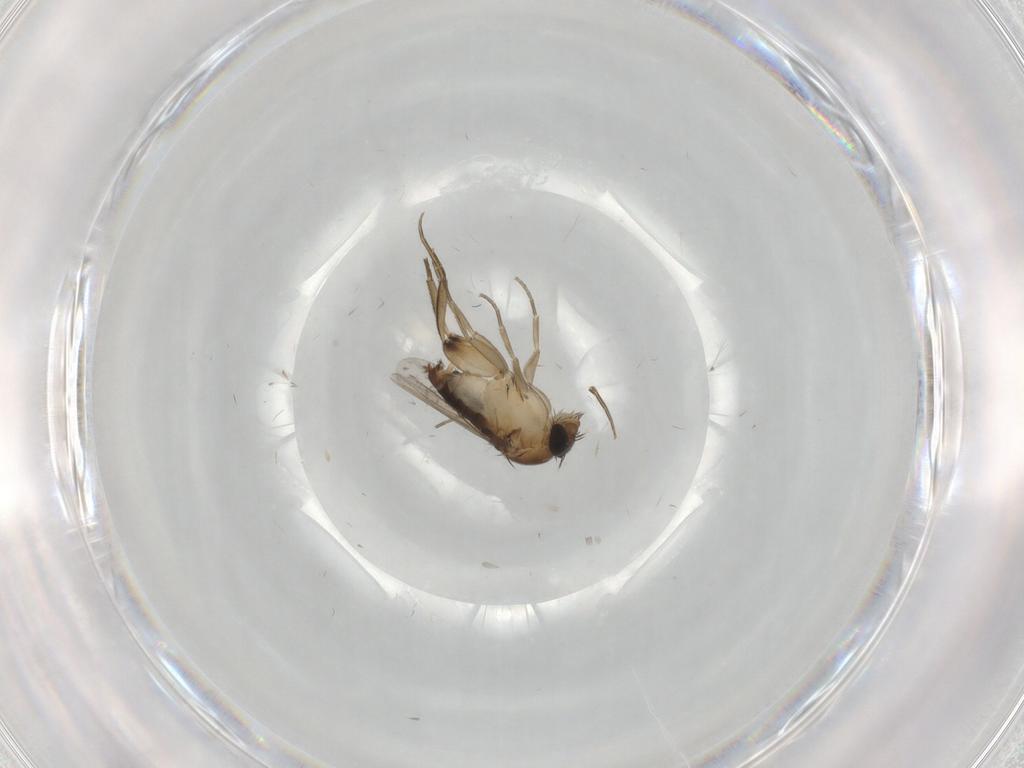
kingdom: Animalia
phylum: Arthropoda
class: Insecta
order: Diptera
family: Phoridae
